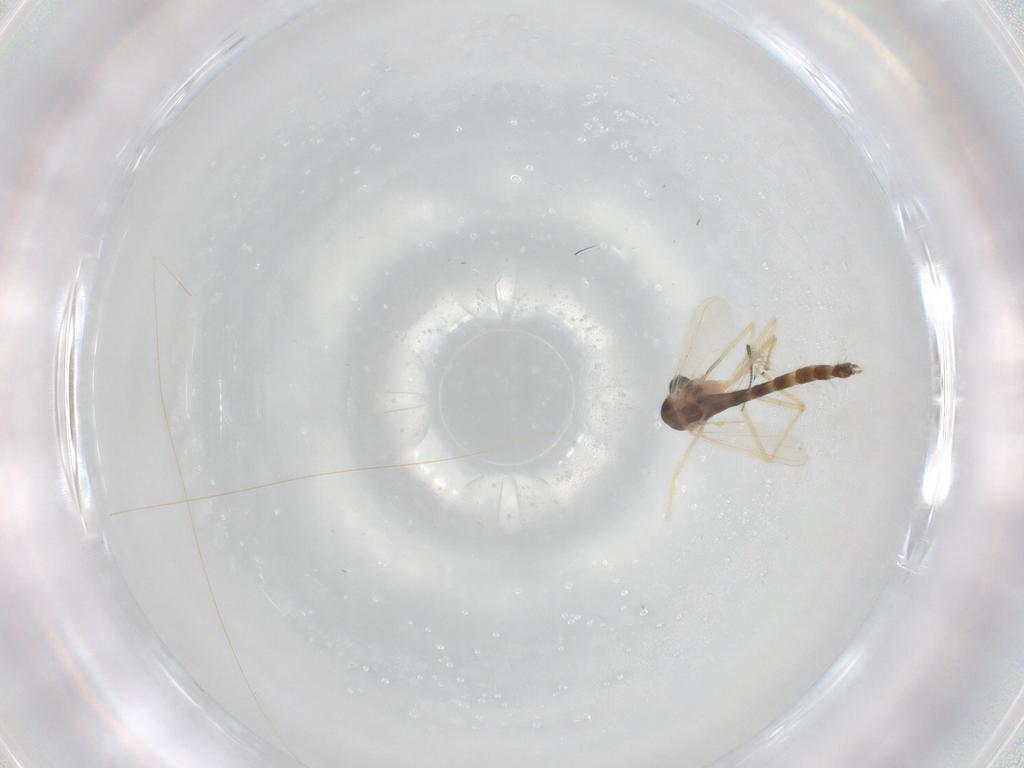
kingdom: Animalia
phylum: Arthropoda
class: Insecta
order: Diptera
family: Chironomidae
